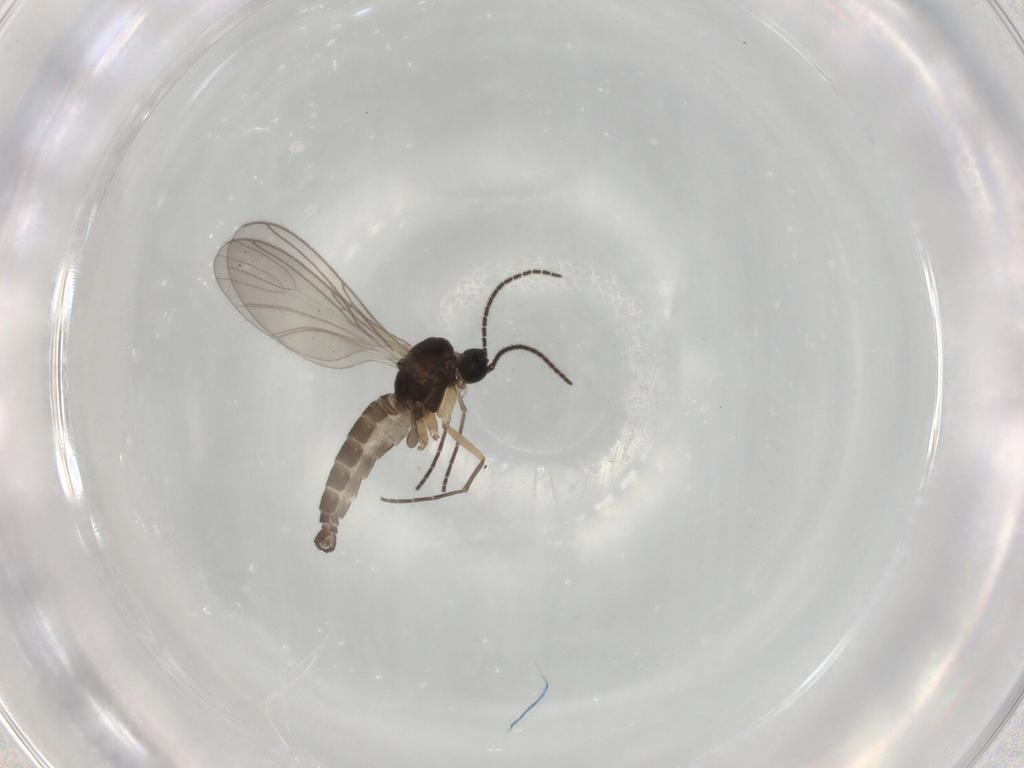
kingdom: Animalia
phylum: Arthropoda
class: Insecta
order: Diptera
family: Sciaridae
